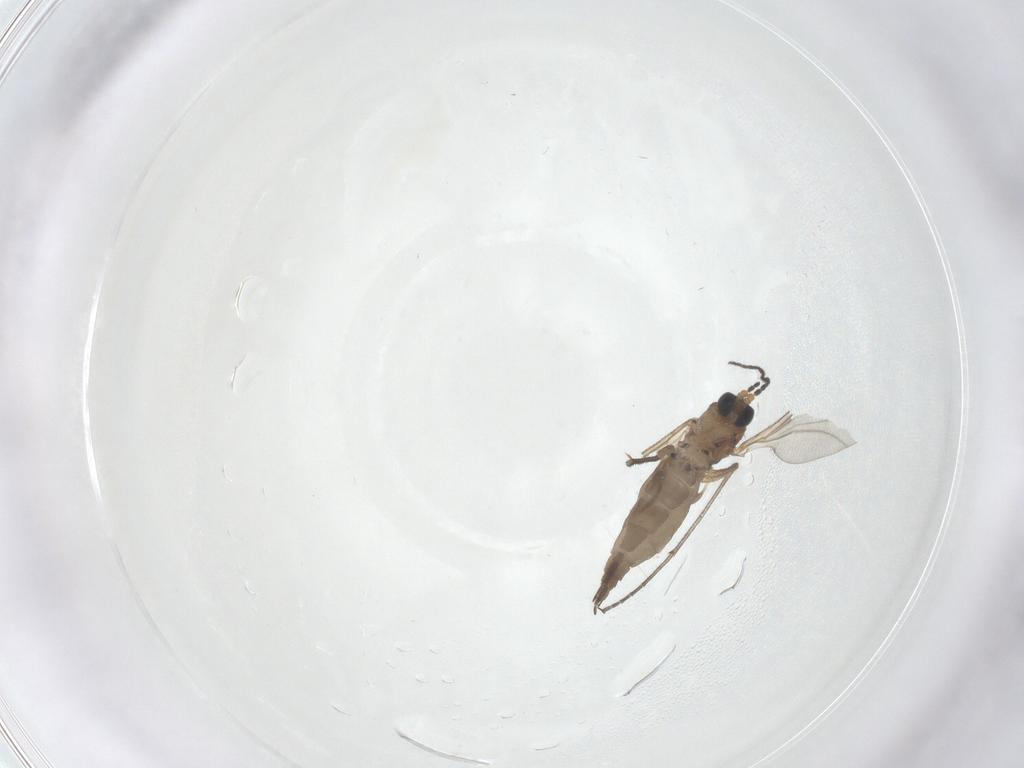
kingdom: Animalia
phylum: Arthropoda
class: Insecta
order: Diptera
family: Sciaridae
